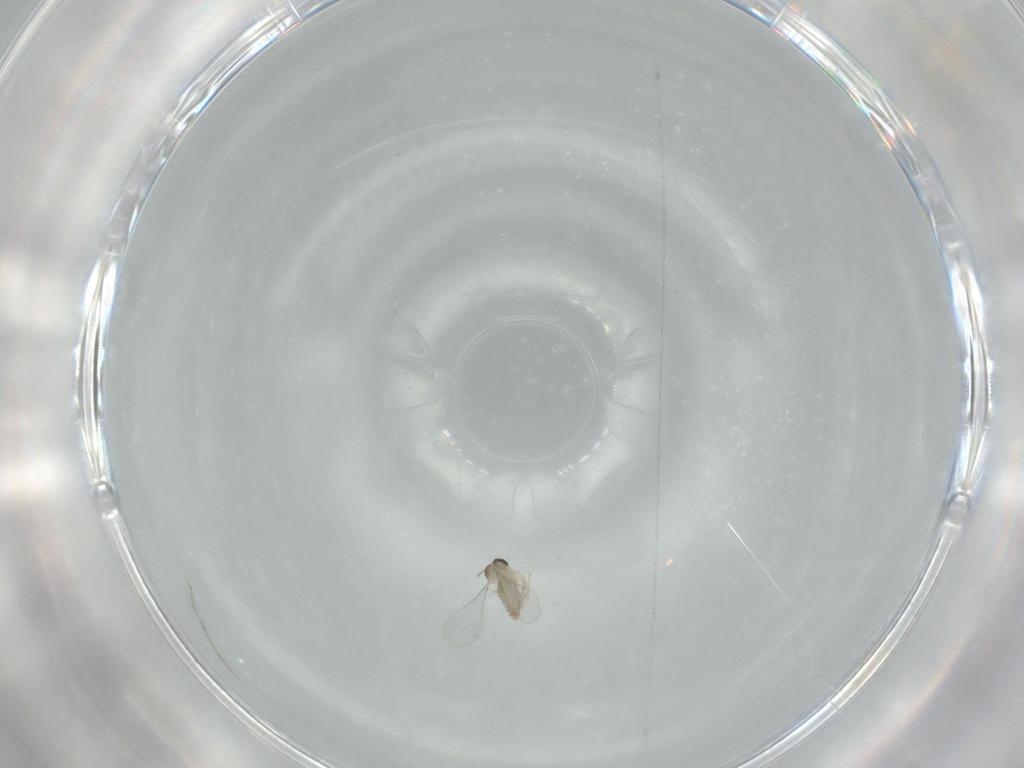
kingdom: Animalia
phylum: Arthropoda
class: Insecta
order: Diptera
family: Cecidomyiidae
